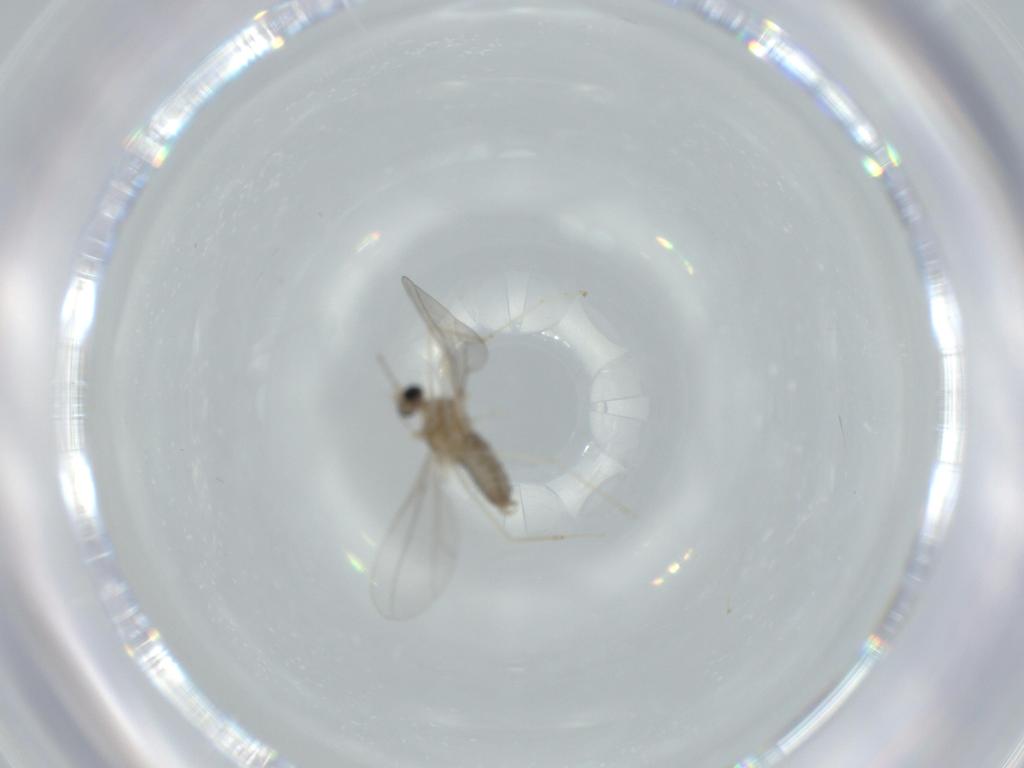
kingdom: Animalia
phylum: Arthropoda
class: Insecta
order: Diptera
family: Cecidomyiidae
